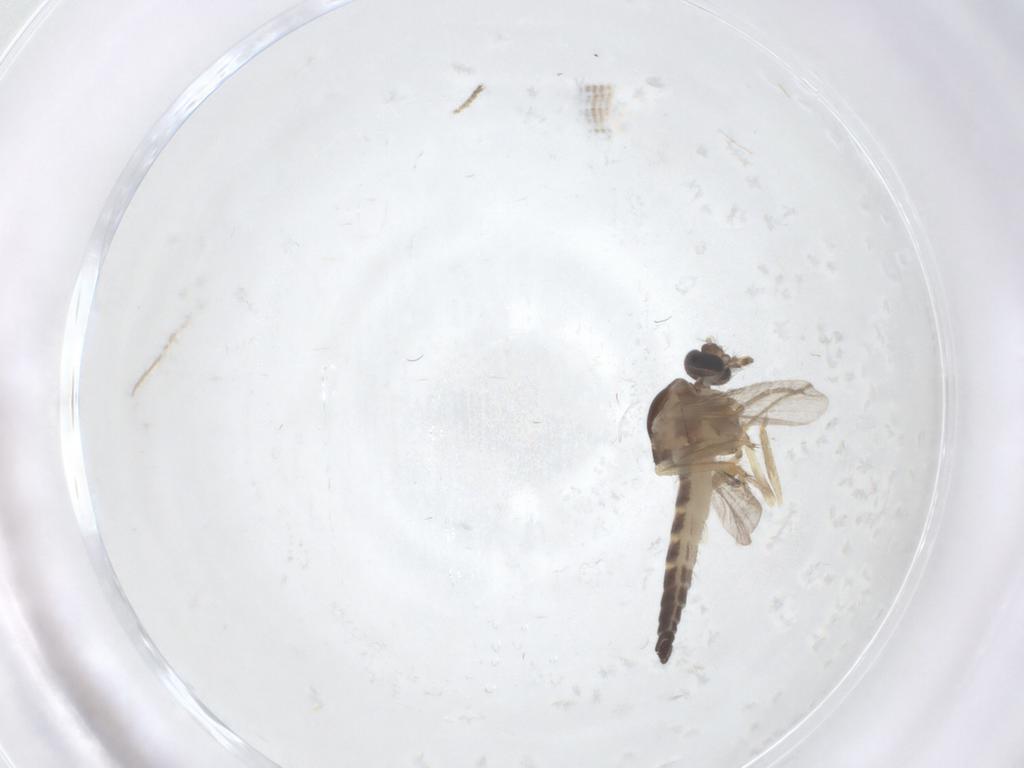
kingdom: Animalia
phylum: Arthropoda
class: Insecta
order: Diptera
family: Ceratopogonidae
